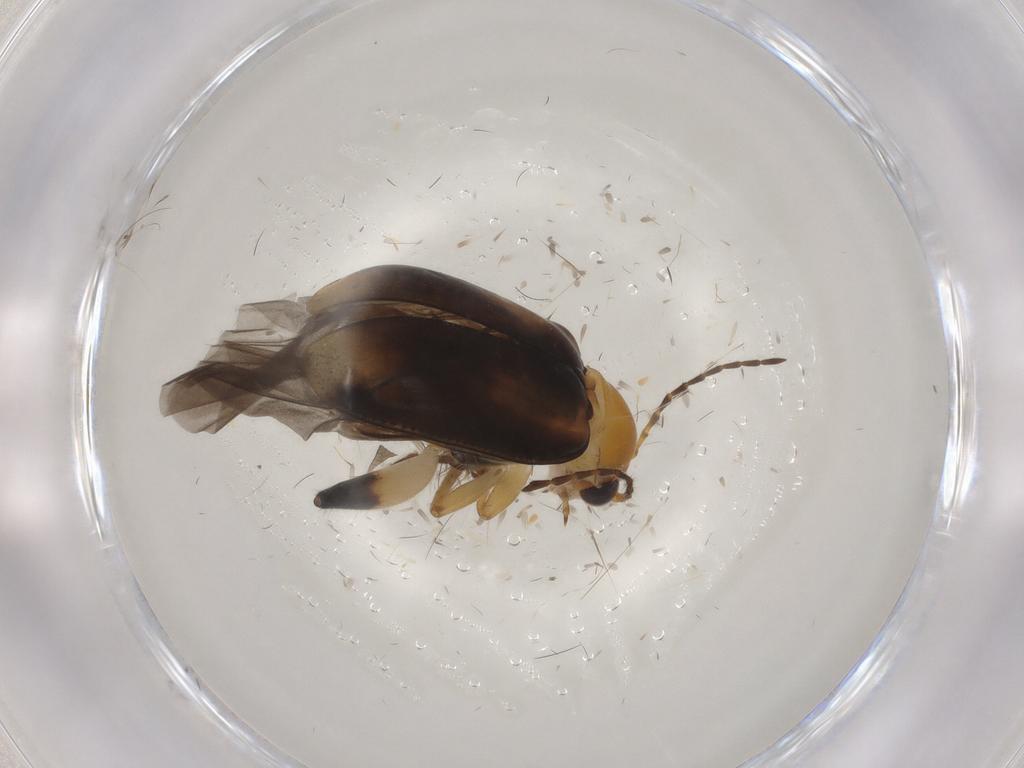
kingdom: Animalia
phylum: Arthropoda
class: Insecta
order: Coleoptera
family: Chrysomelidae
